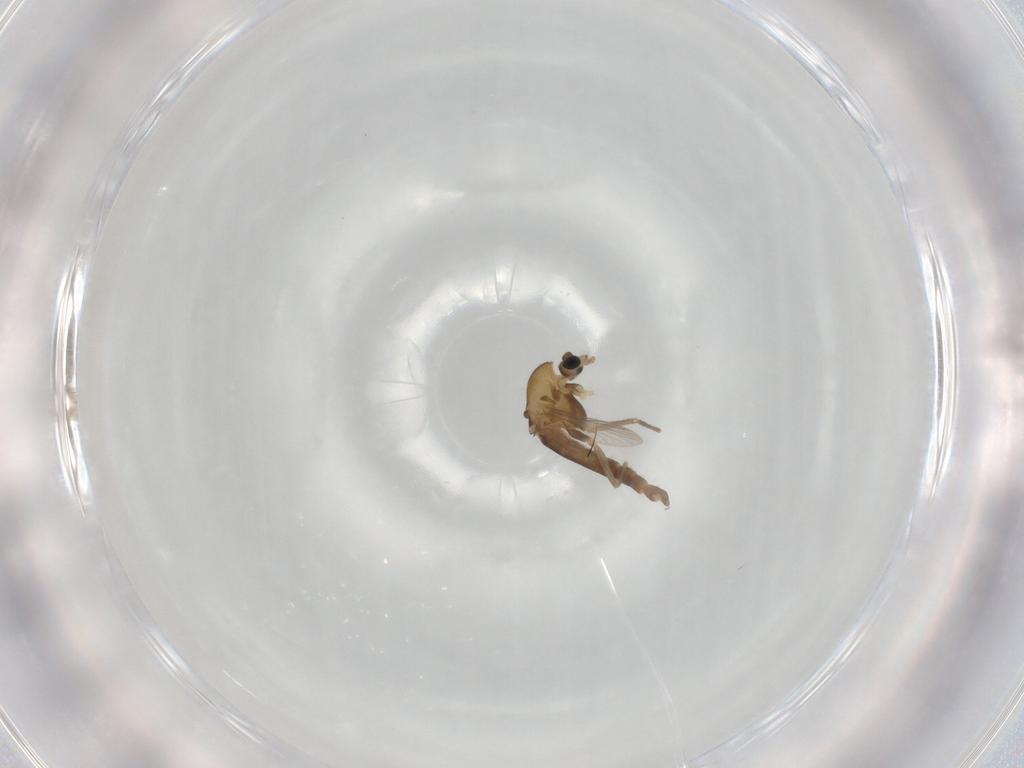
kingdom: Animalia
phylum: Arthropoda
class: Insecta
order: Diptera
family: Chironomidae
